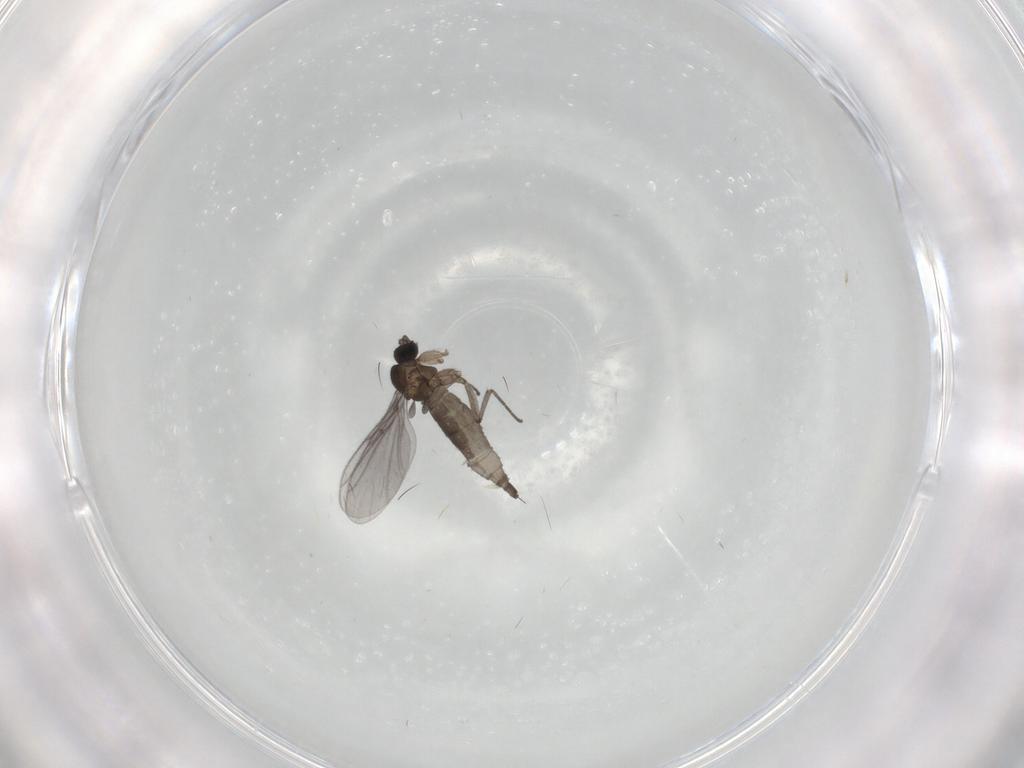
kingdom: Animalia
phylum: Arthropoda
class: Insecta
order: Diptera
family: Sciaridae
